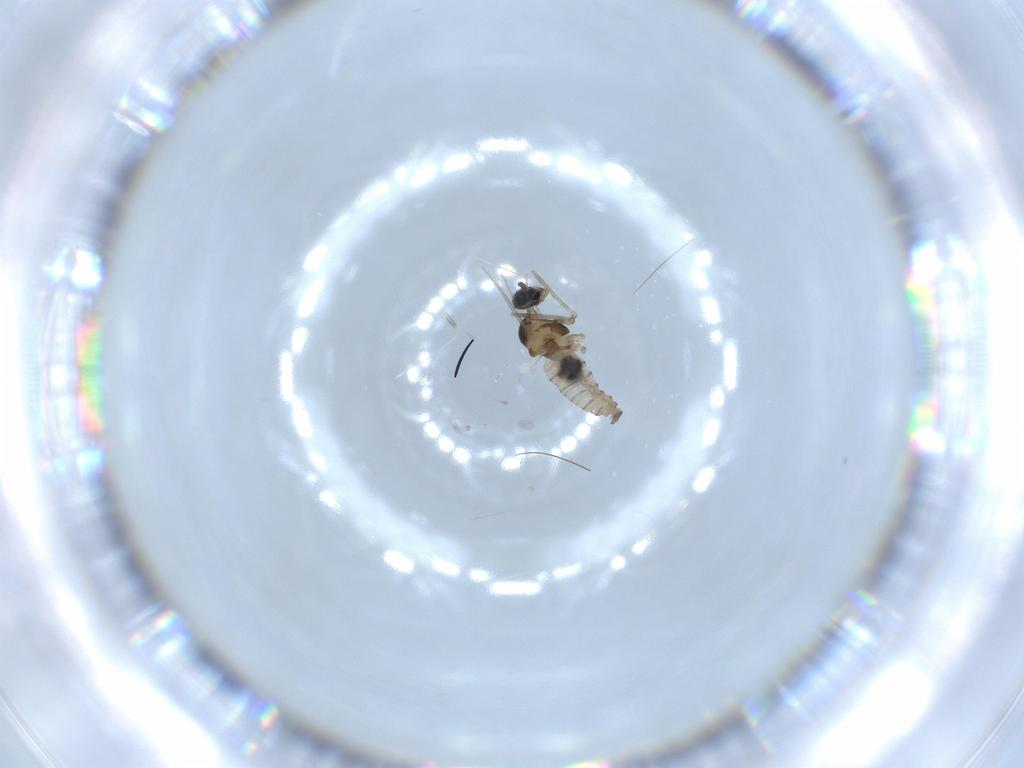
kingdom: Animalia
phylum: Arthropoda
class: Insecta
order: Diptera
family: Cecidomyiidae
